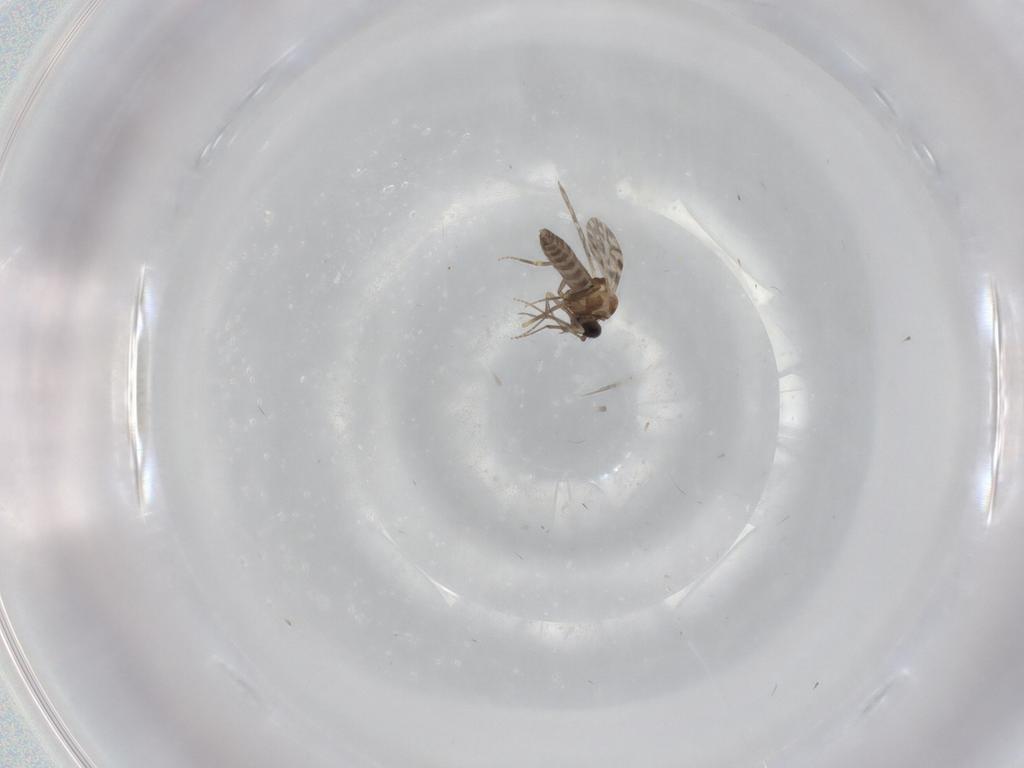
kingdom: Animalia
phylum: Arthropoda
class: Insecta
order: Diptera
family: Ceratopogonidae
